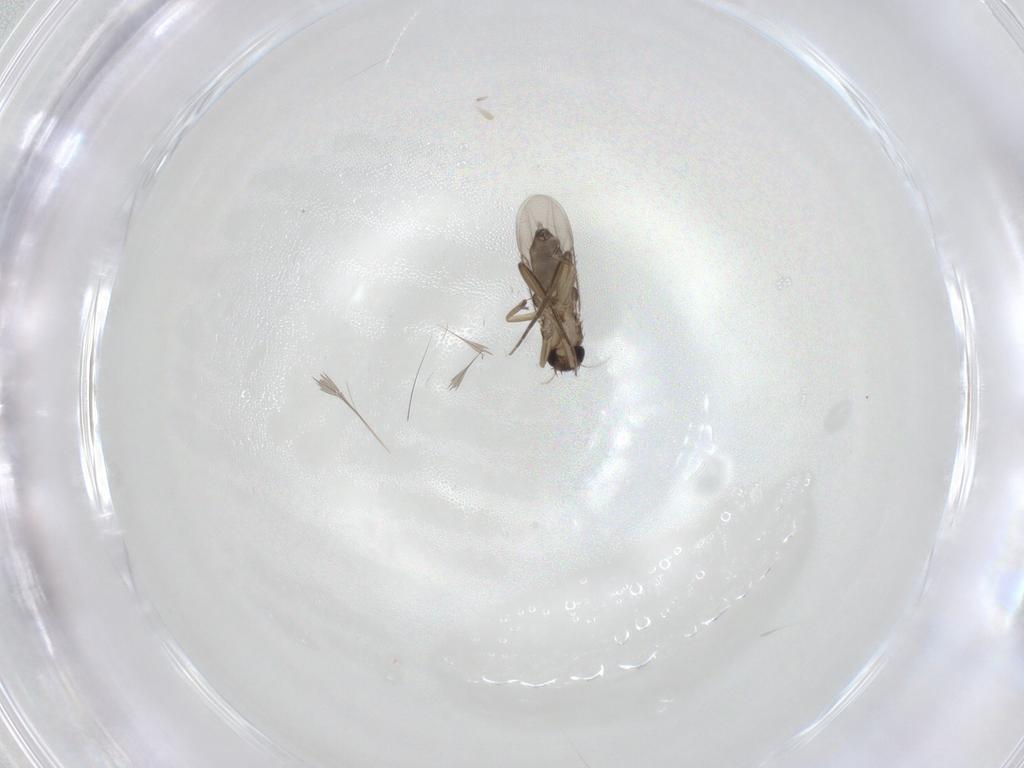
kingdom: Animalia
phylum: Arthropoda
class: Insecta
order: Diptera
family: Phoridae
